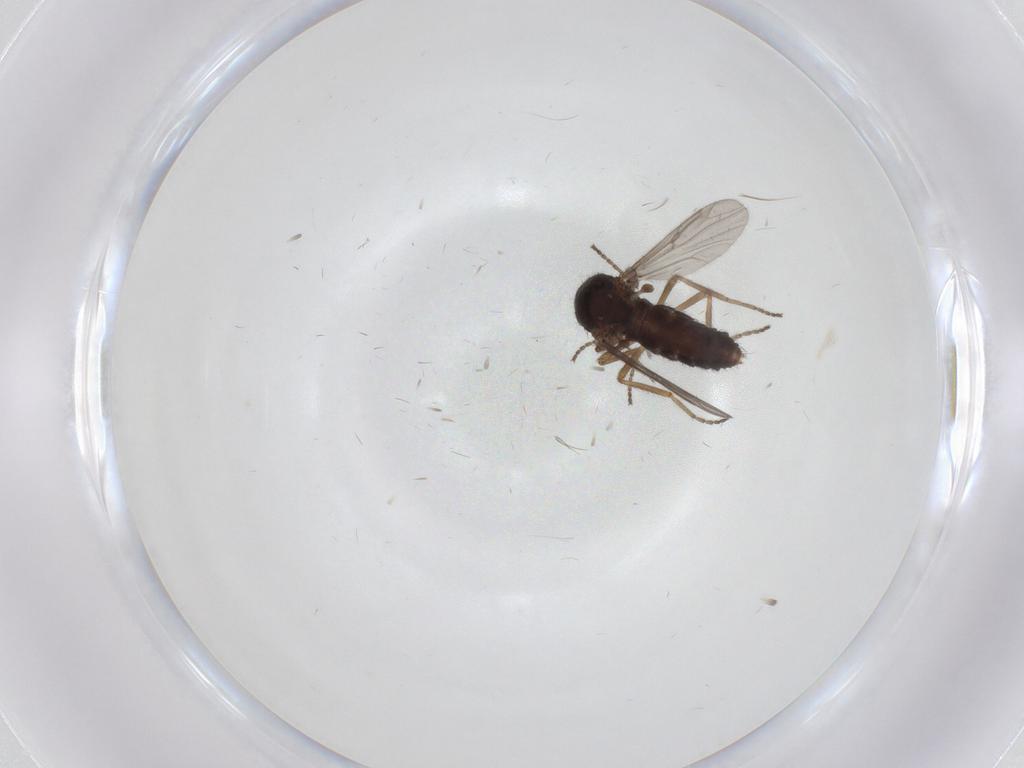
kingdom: Animalia
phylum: Arthropoda
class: Insecta
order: Diptera
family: Ceratopogonidae
